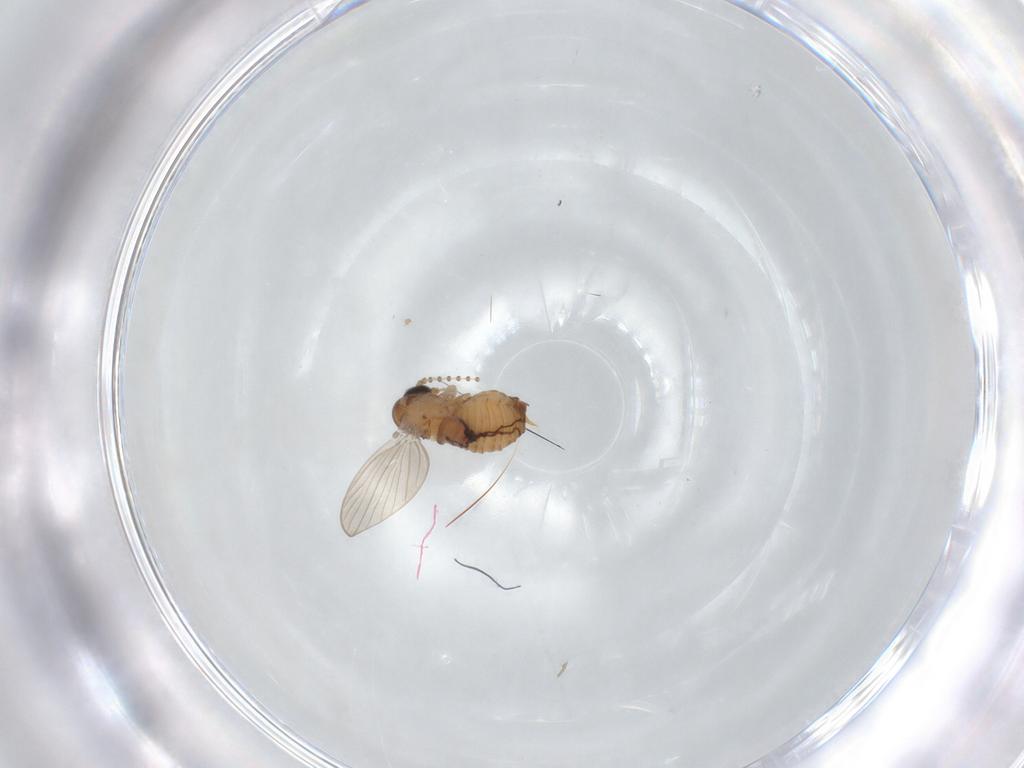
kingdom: Animalia
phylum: Arthropoda
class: Insecta
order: Diptera
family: Psychodidae
